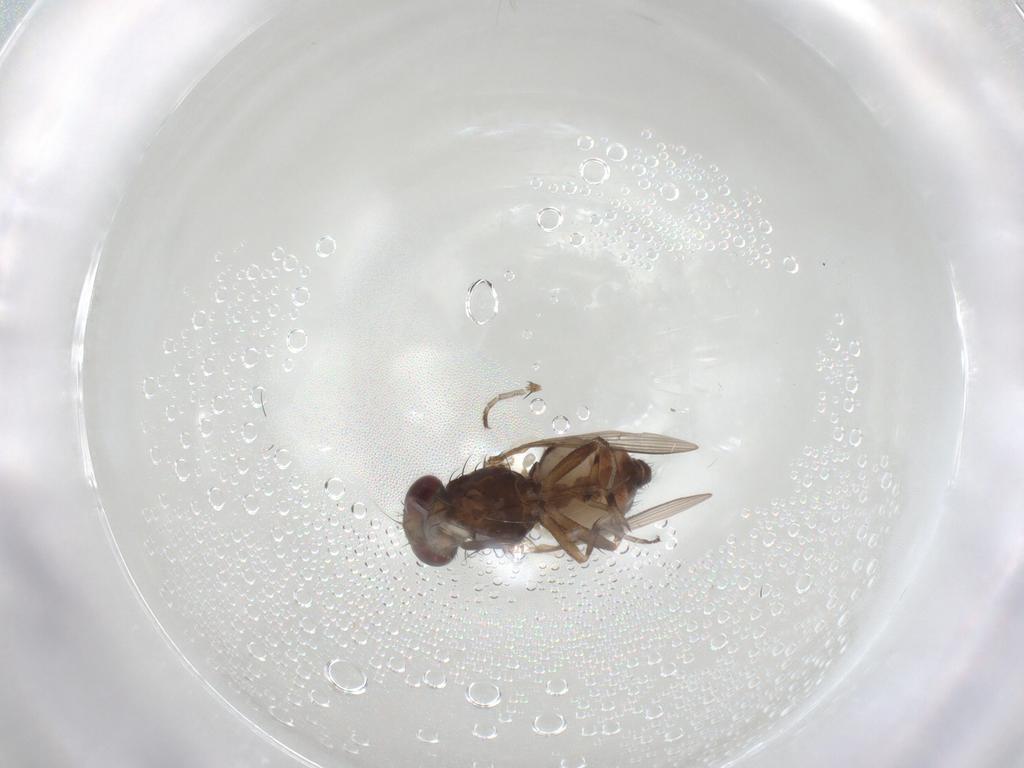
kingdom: Animalia
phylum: Arthropoda
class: Insecta
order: Diptera
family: Heleomyzidae
